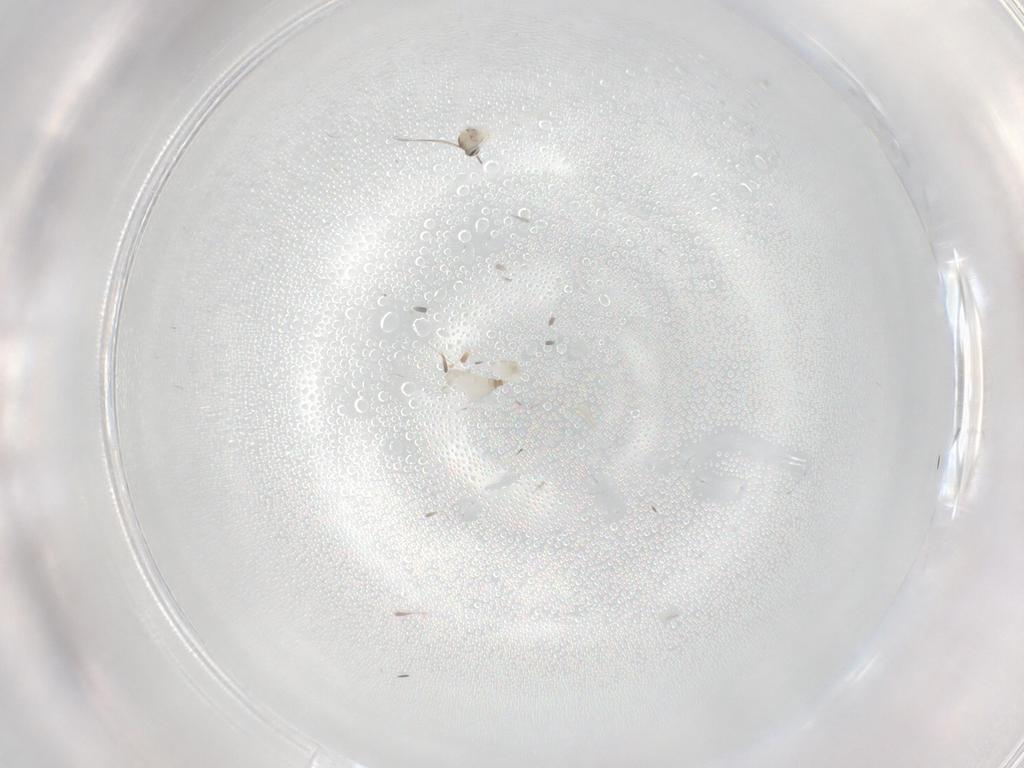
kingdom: Animalia
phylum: Arthropoda
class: Insecta
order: Diptera
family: Cecidomyiidae
